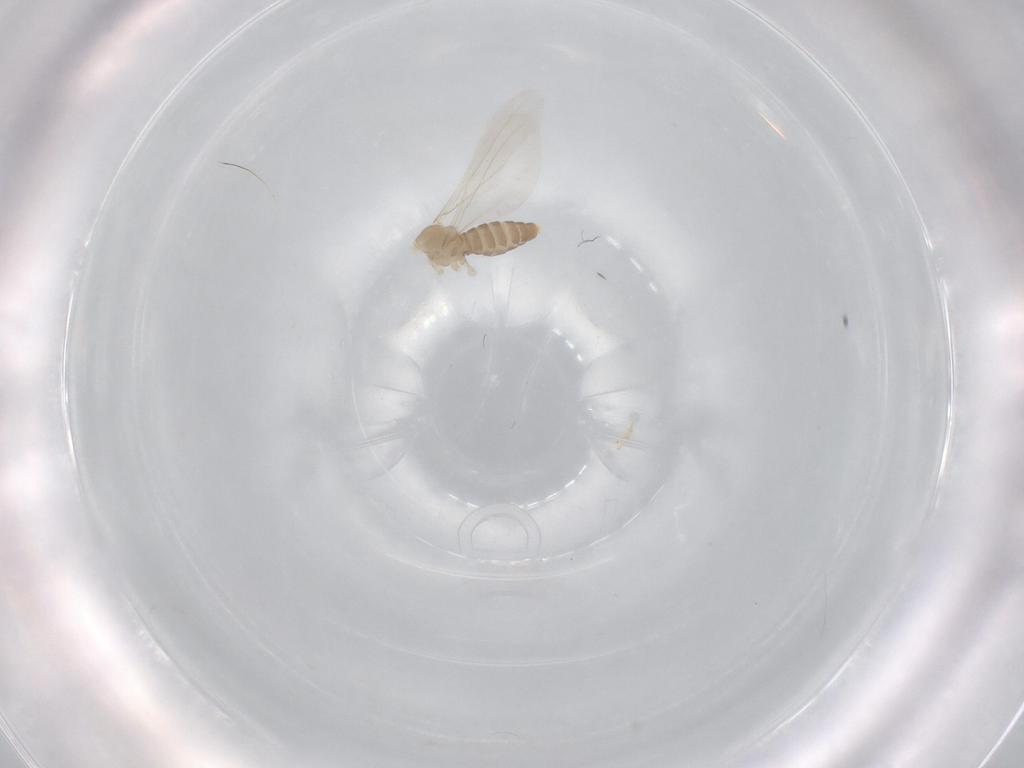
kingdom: Animalia
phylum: Arthropoda
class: Insecta
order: Diptera
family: Cecidomyiidae
